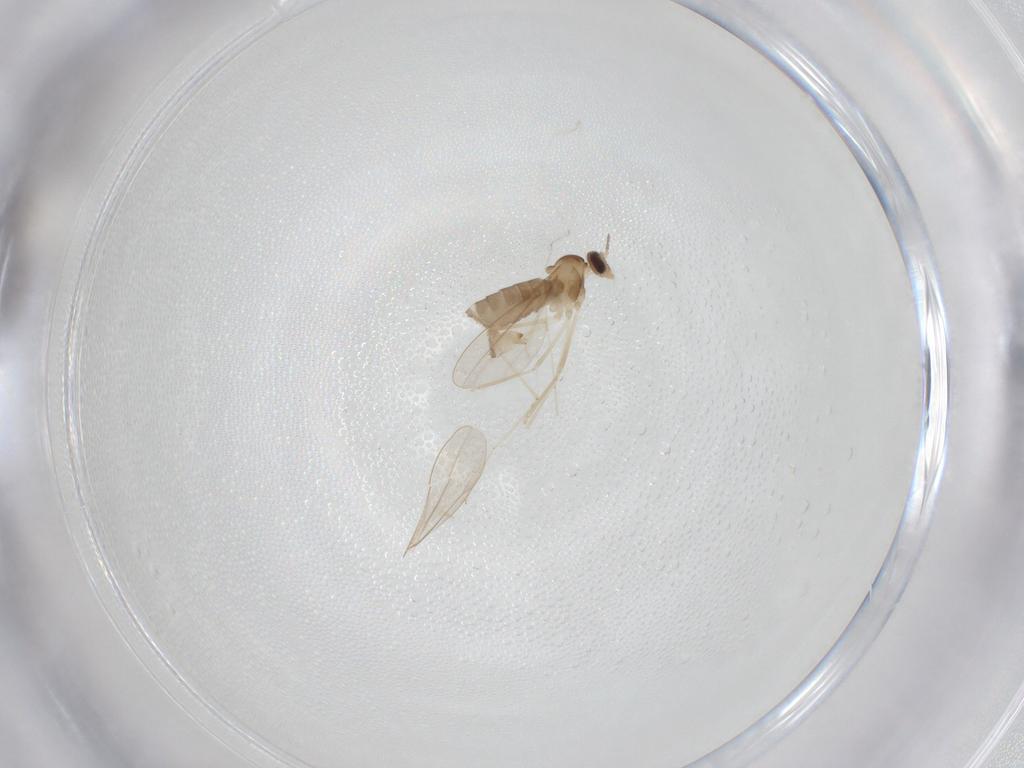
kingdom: Animalia
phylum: Arthropoda
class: Insecta
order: Diptera
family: Cecidomyiidae
